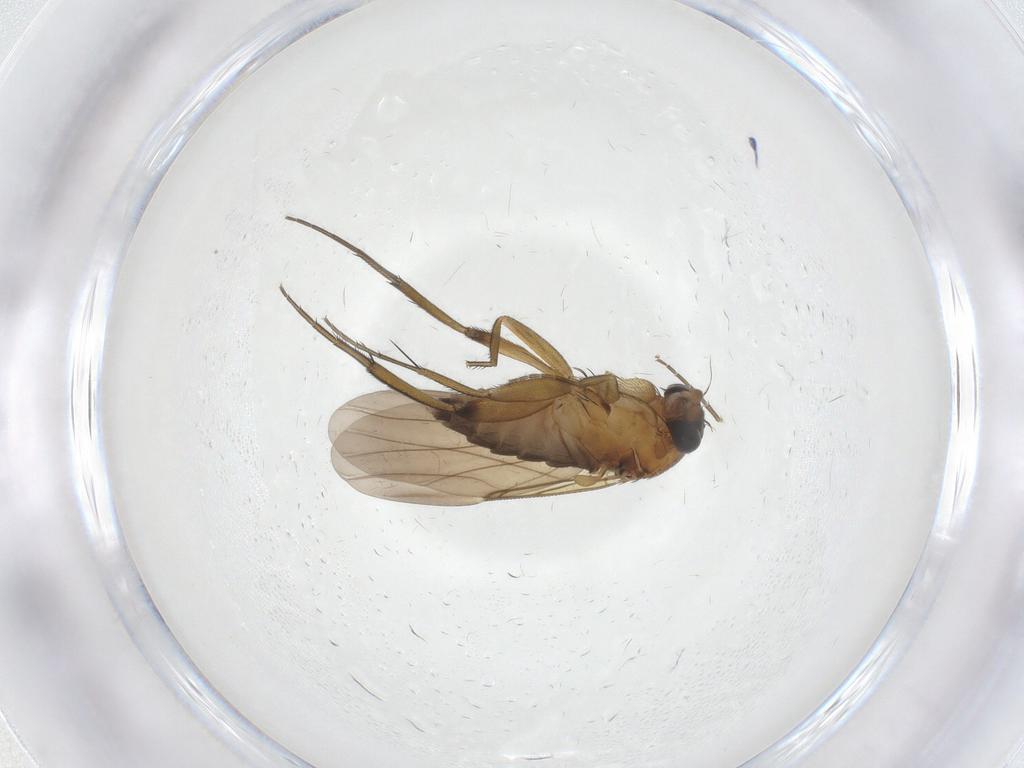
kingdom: Animalia
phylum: Arthropoda
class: Insecta
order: Diptera
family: Phoridae
